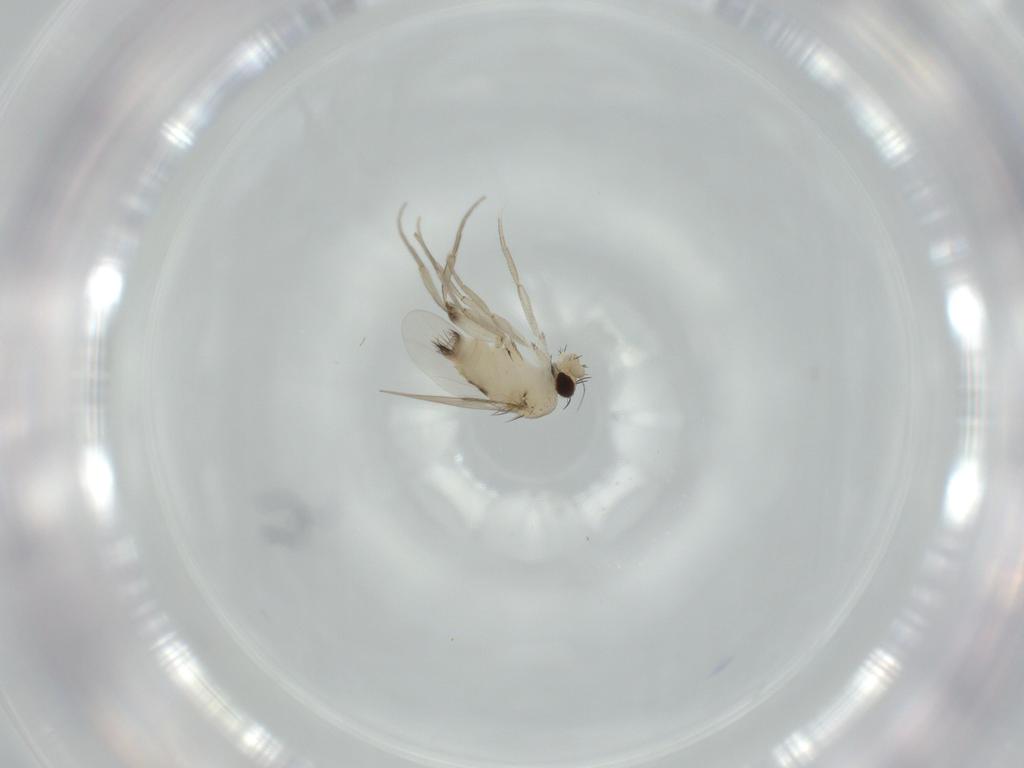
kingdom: Animalia
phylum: Arthropoda
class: Insecta
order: Diptera
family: Phoridae
